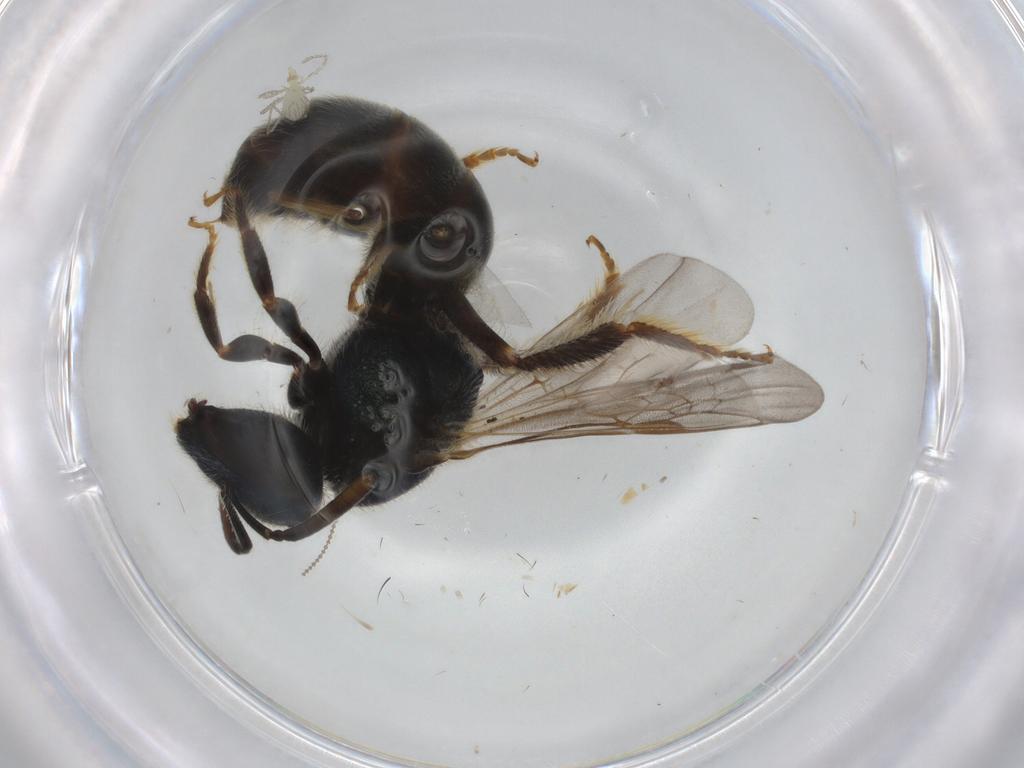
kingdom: Animalia
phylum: Arthropoda
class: Insecta
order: Hymenoptera
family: Halictidae
